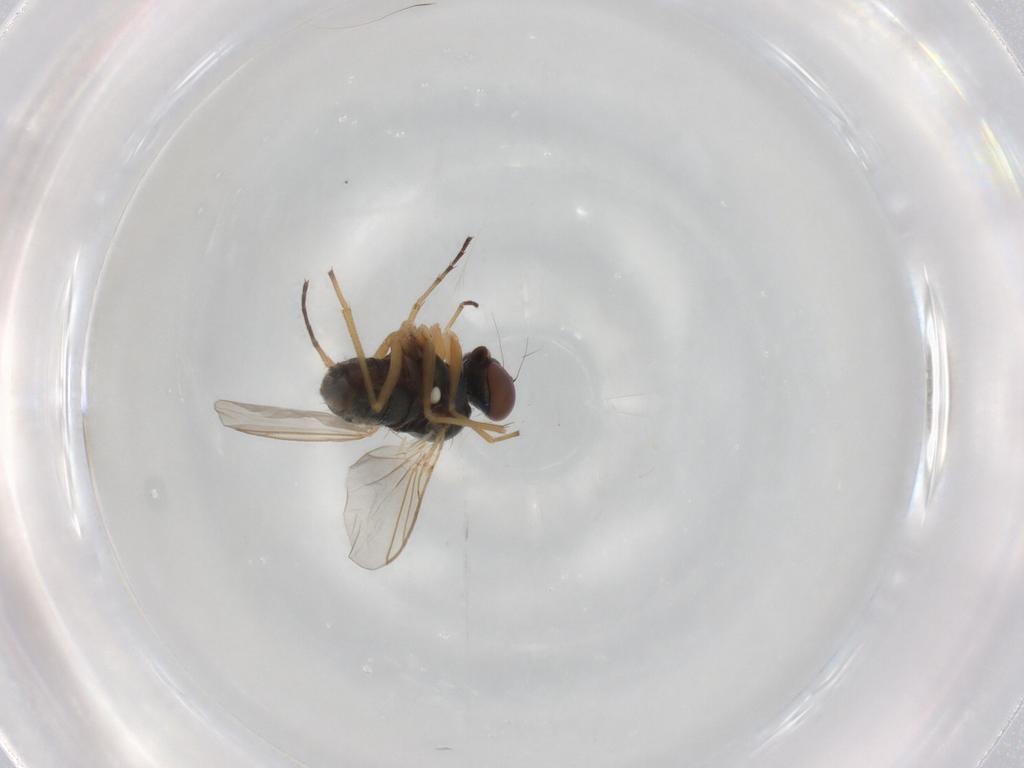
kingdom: Animalia
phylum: Arthropoda
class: Insecta
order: Diptera
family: Dolichopodidae
